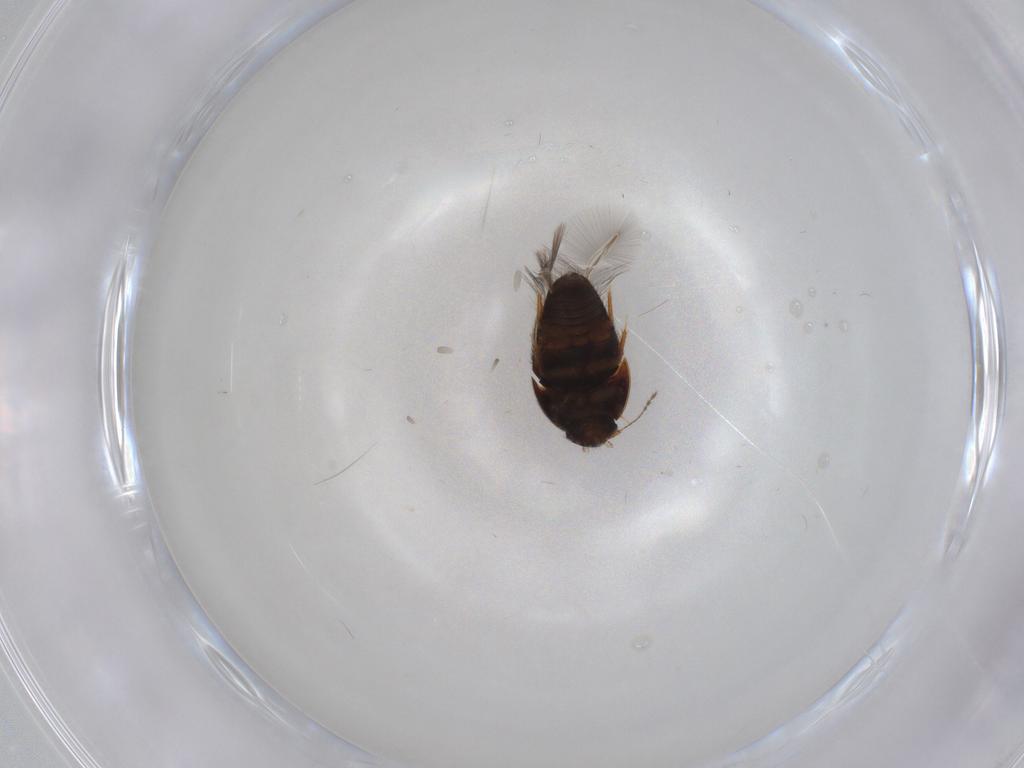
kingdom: Animalia
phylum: Arthropoda
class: Insecta
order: Coleoptera
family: Ptiliidae
